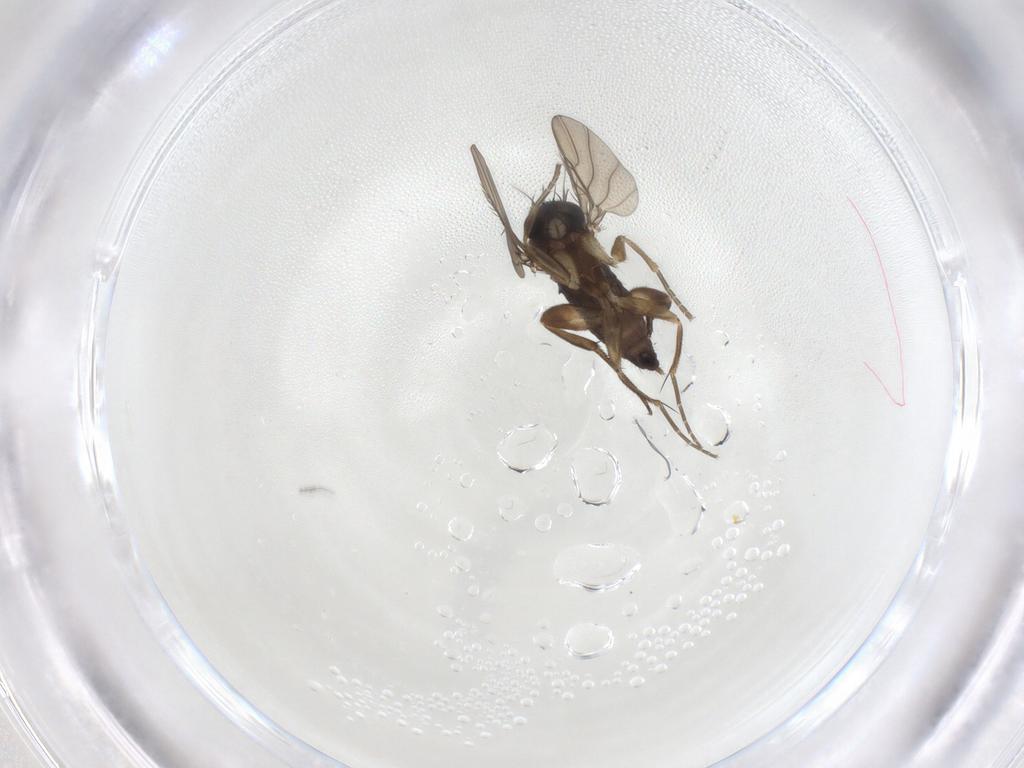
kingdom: Animalia
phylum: Arthropoda
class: Insecta
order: Diptera
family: Phoridae
